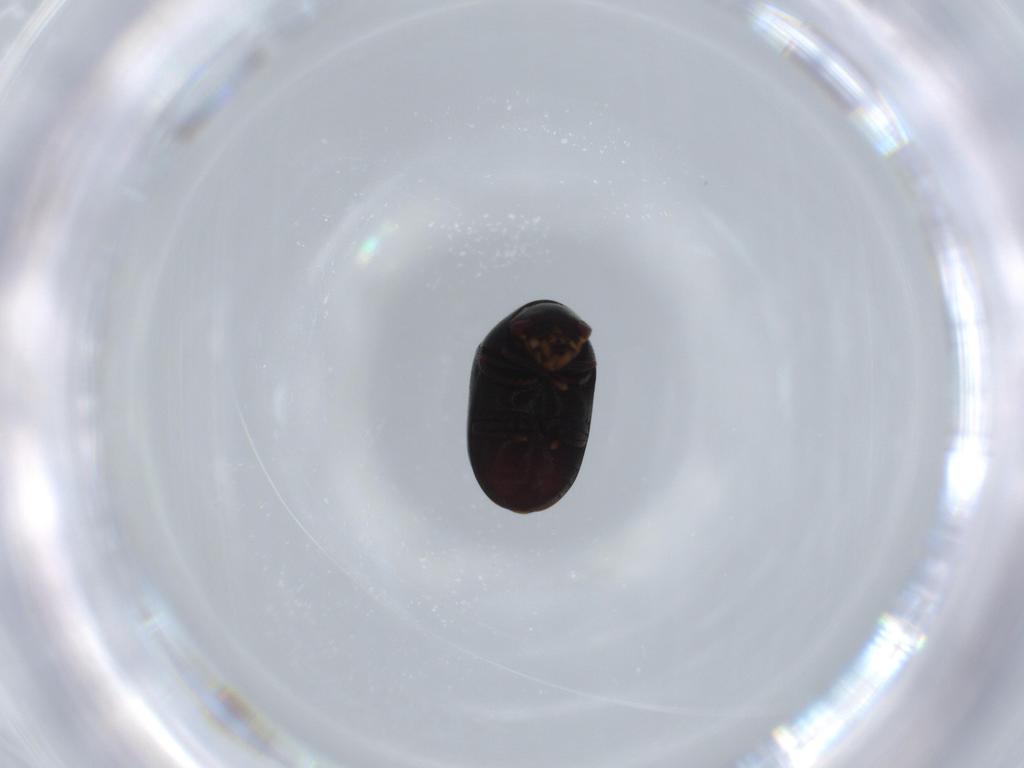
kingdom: Animalia
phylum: Arthropoda
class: Insecta
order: Coleoptera
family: Ptinidae
